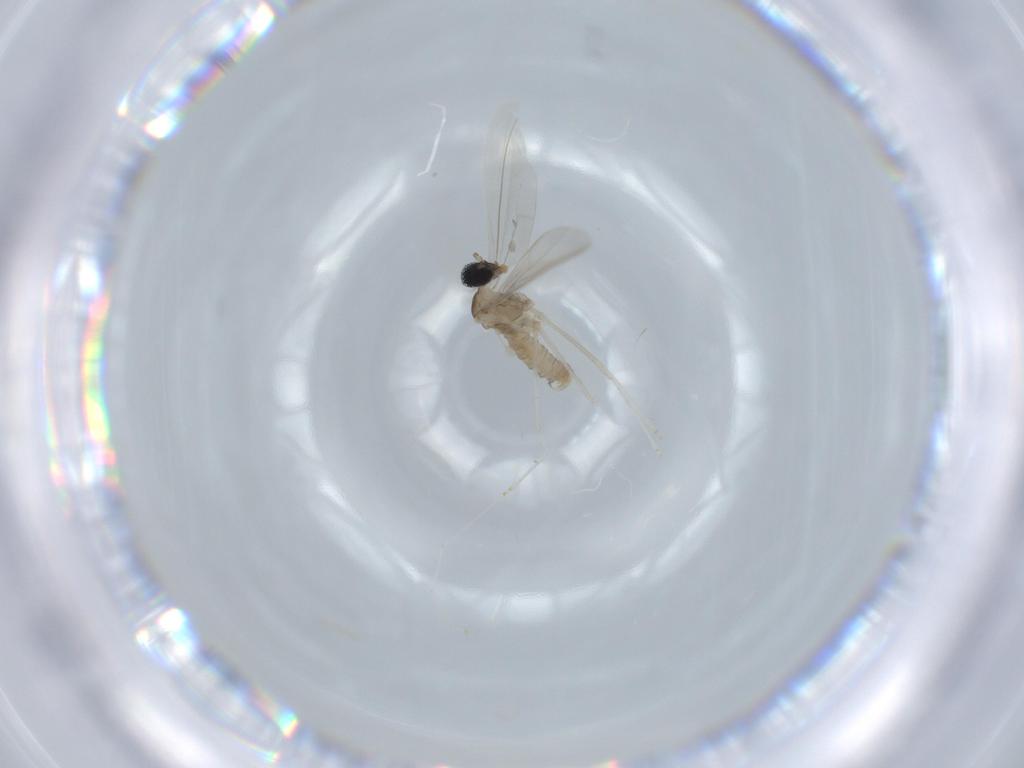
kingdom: Animalia
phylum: Arthropoda
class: Insecta
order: Diptera
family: Cecidomyiidae
